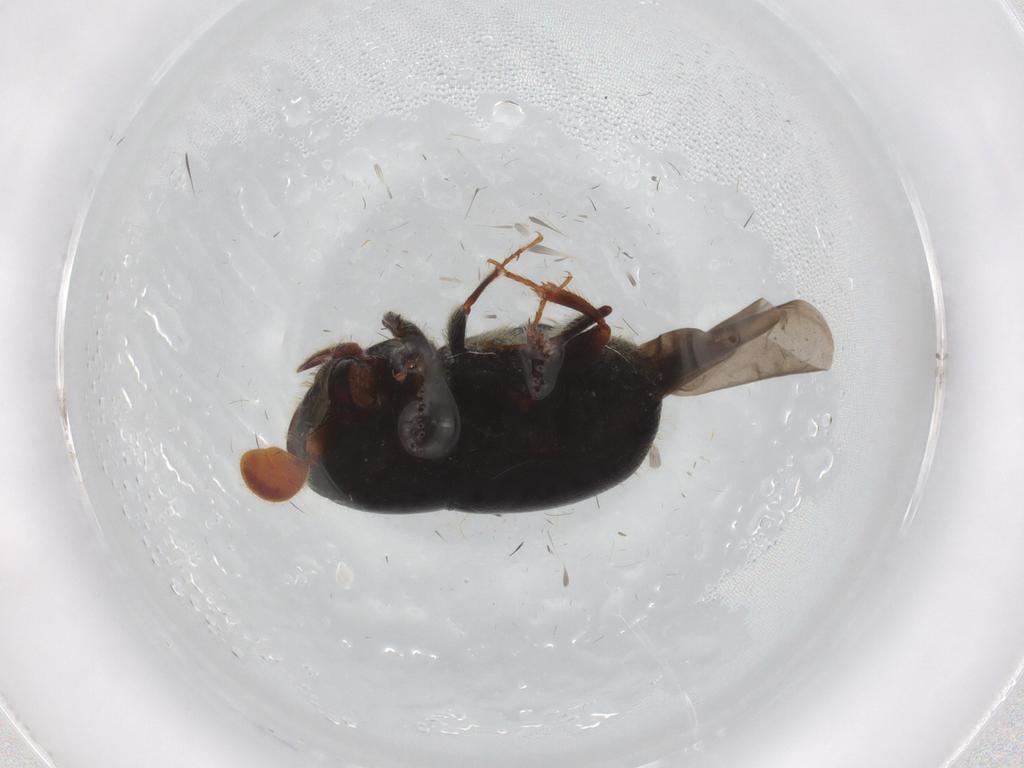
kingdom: Animalia
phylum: Arthropoda
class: Insecta
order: Coleoptera
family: Curculionidae
